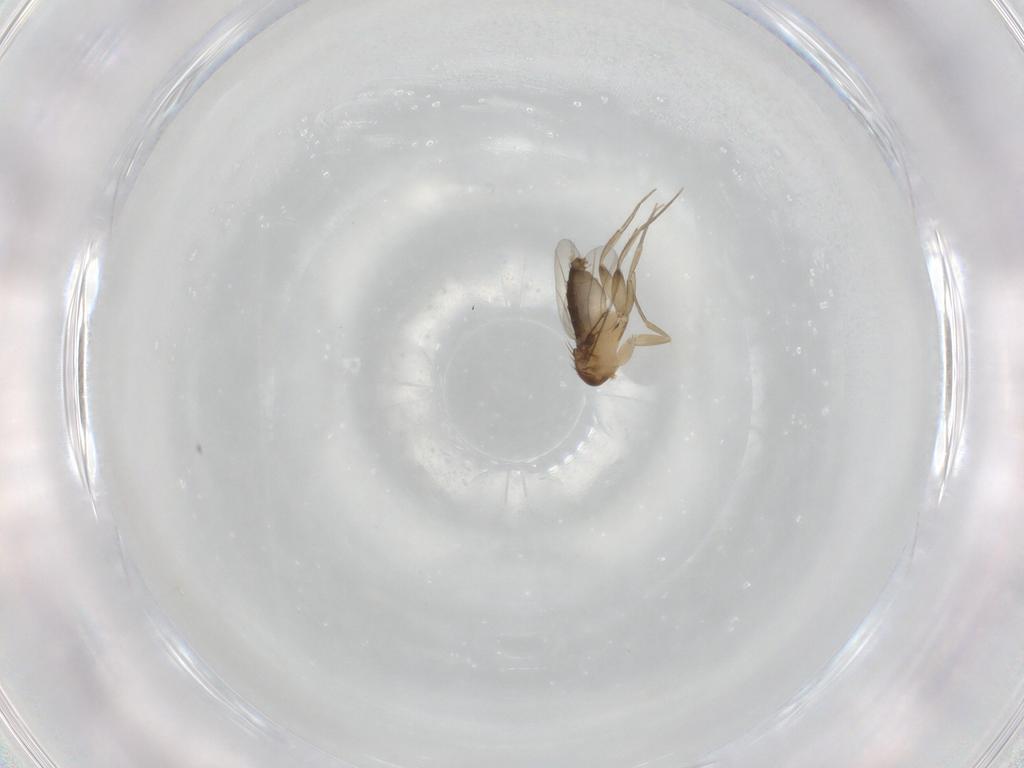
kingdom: Animalia
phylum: Arthropoda
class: Insecta
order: Diptera
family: Phoridae
